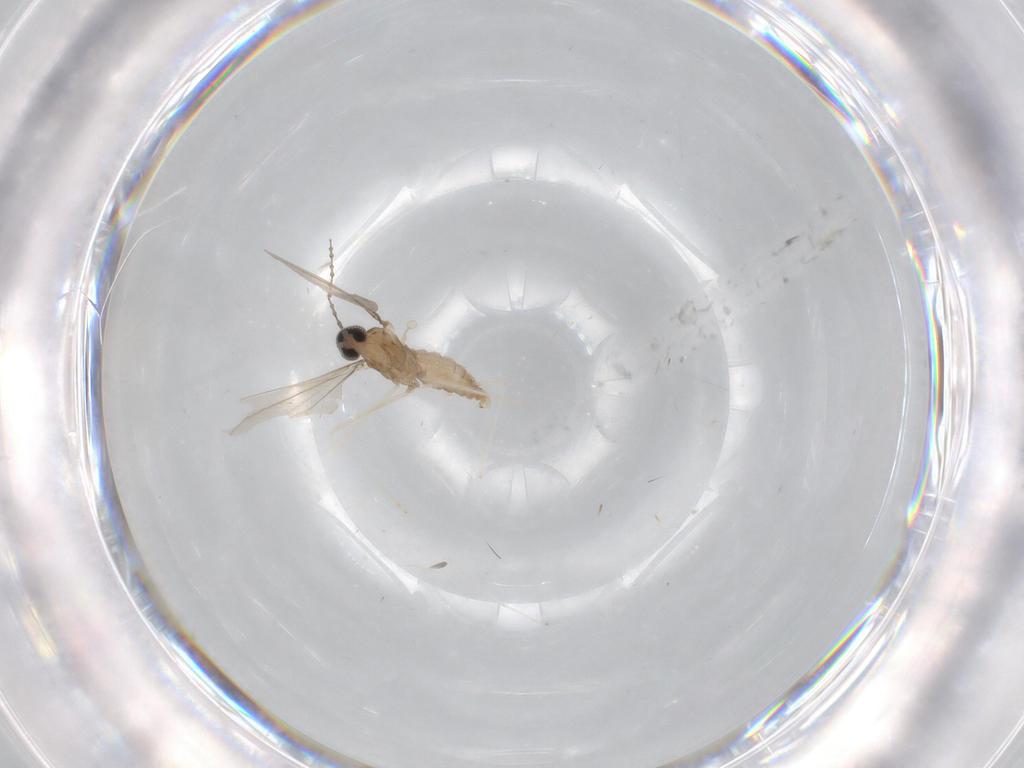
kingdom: Animalia
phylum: Arthropoda
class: Insecta
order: Diptera
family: Cecidomyiidae
